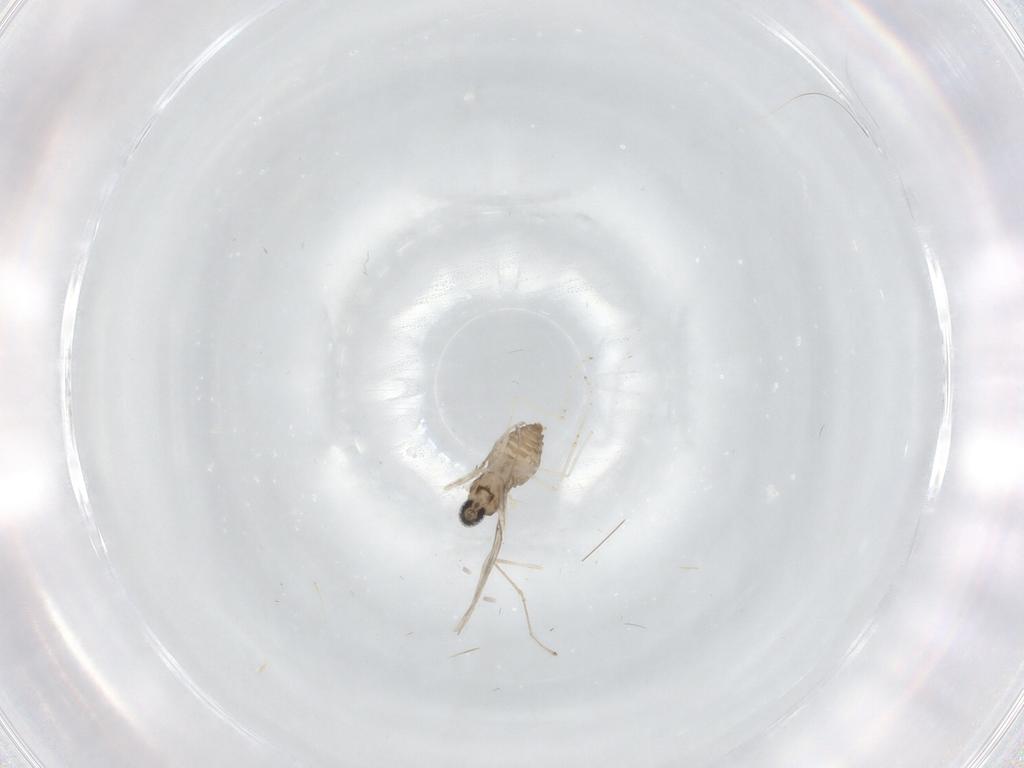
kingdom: Animalia
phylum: Arthropoda
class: Insecta
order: Diptera
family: Cecidomyiidae
